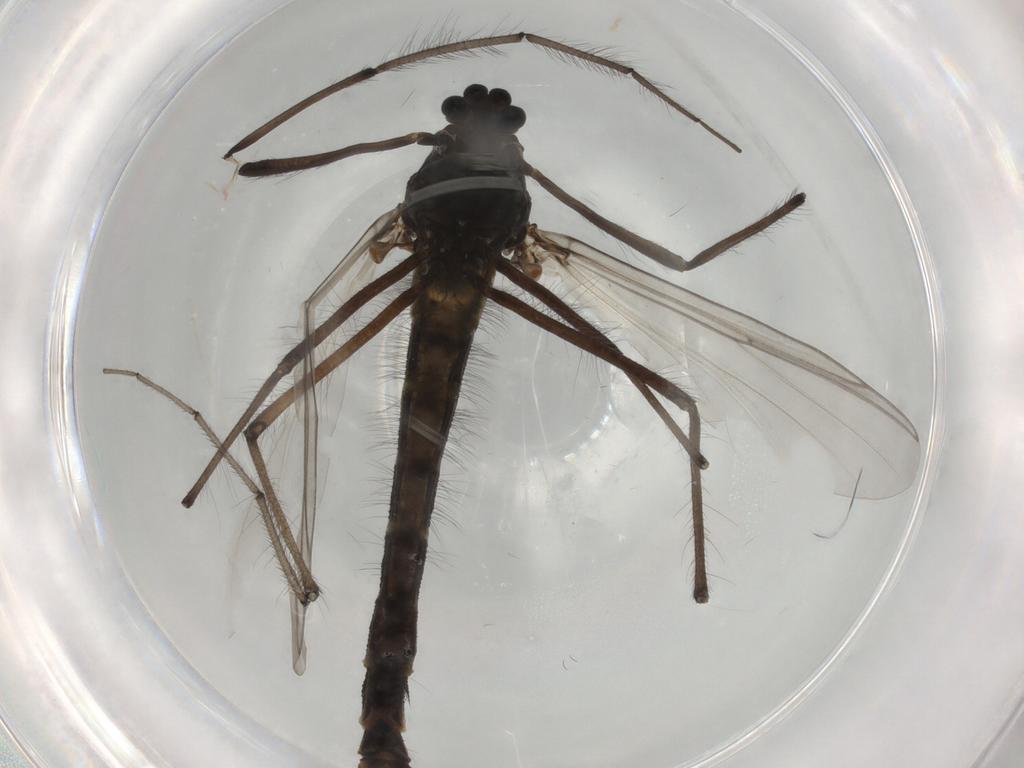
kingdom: Animalia
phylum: Arthropoda
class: Insecta
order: Diptera
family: Chironomidae
